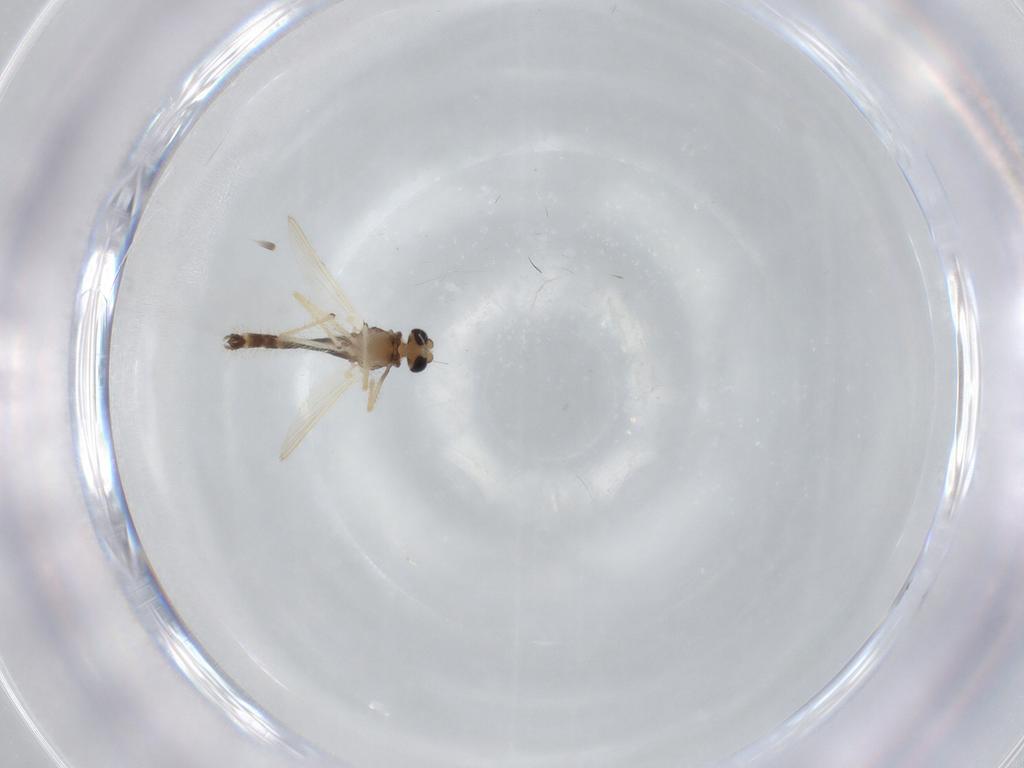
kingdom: Animalia
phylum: Arthropoda
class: Insecta
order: Diptera
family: Chironomidae
